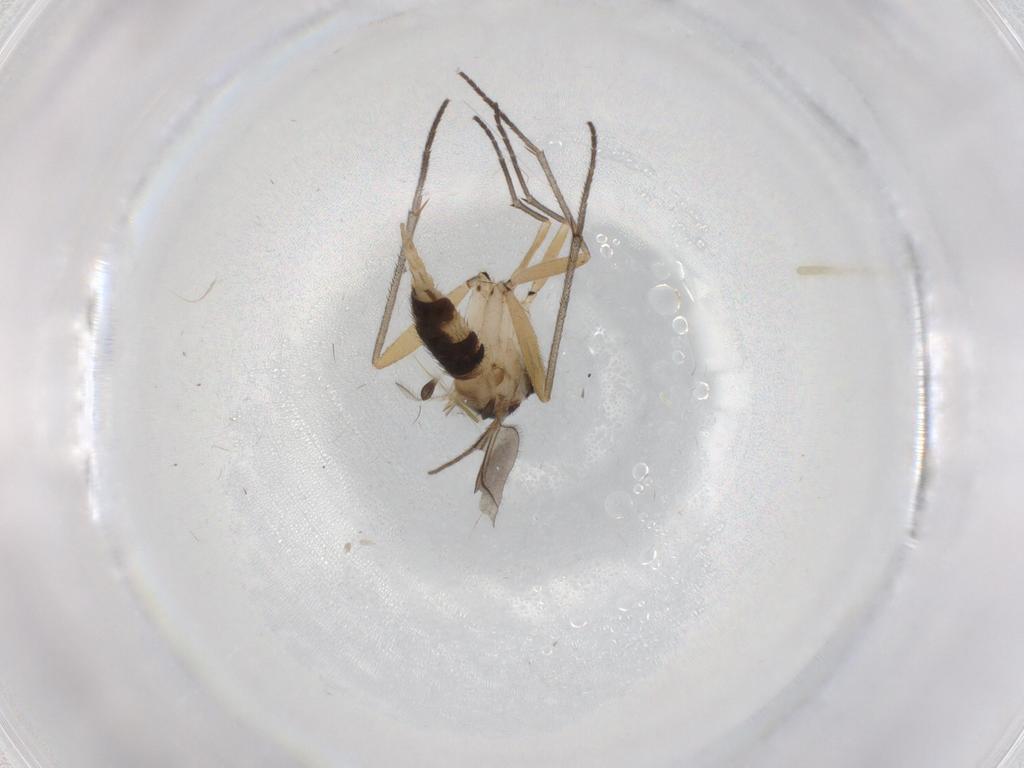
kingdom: Animalia
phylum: Arthropoda
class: Insecta
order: Diptera
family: Sciaridae
